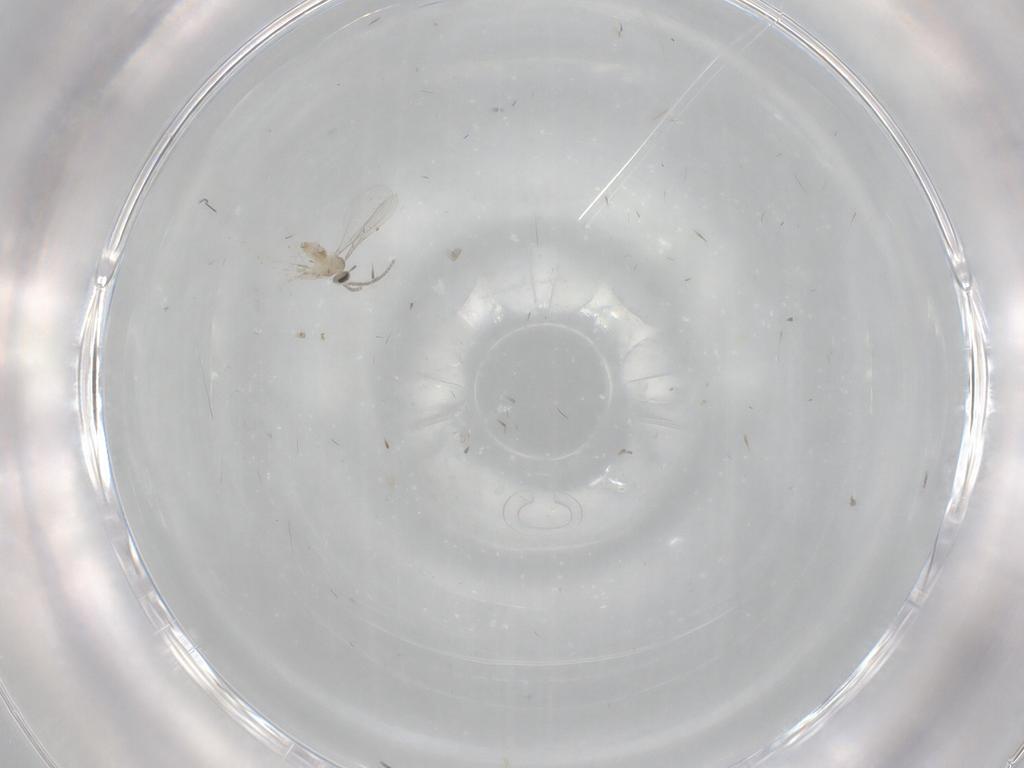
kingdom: Animalia
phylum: Arthropoda
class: Insecta
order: Diptera
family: Cecidomyiidae
